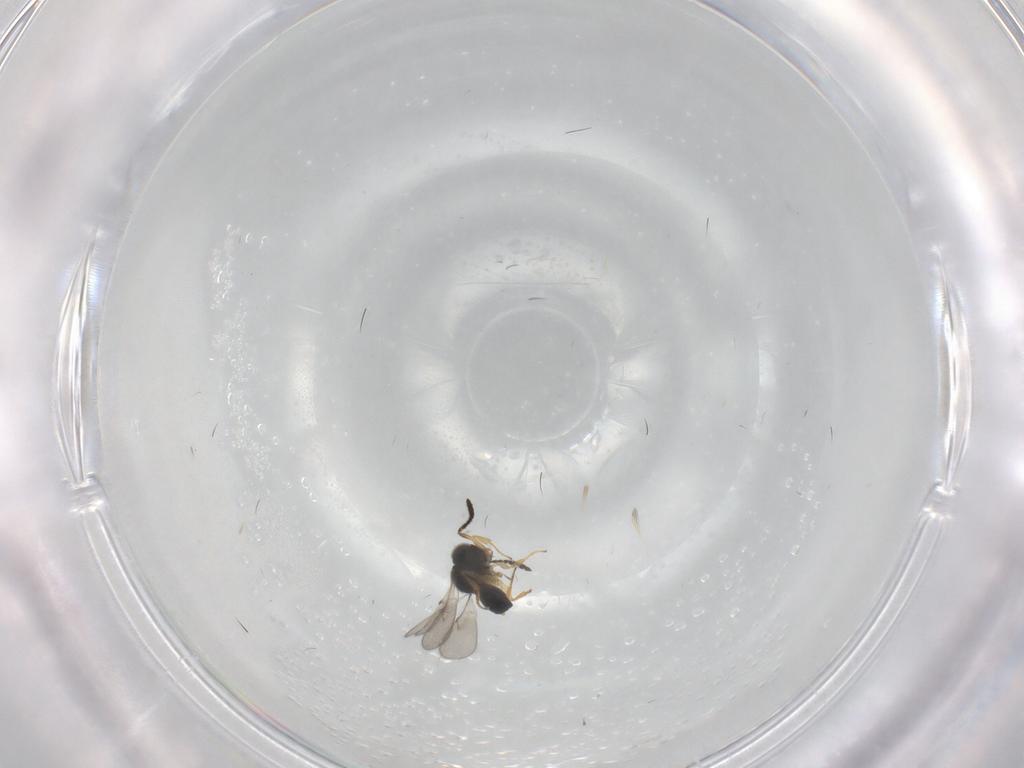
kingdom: Animalia
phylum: Arthropoda
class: Insecta
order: Hymenoptera
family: Scelionidae
